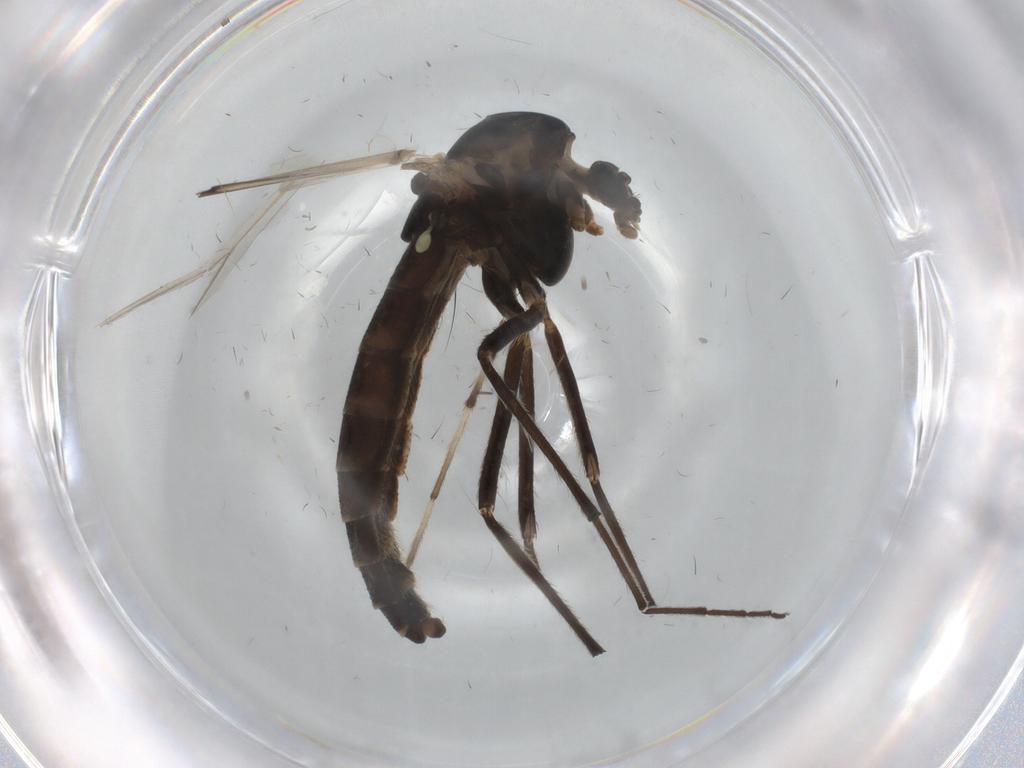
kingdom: Animalia
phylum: Arthropoda
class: Insecta
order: Diptera
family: Chironomidae
